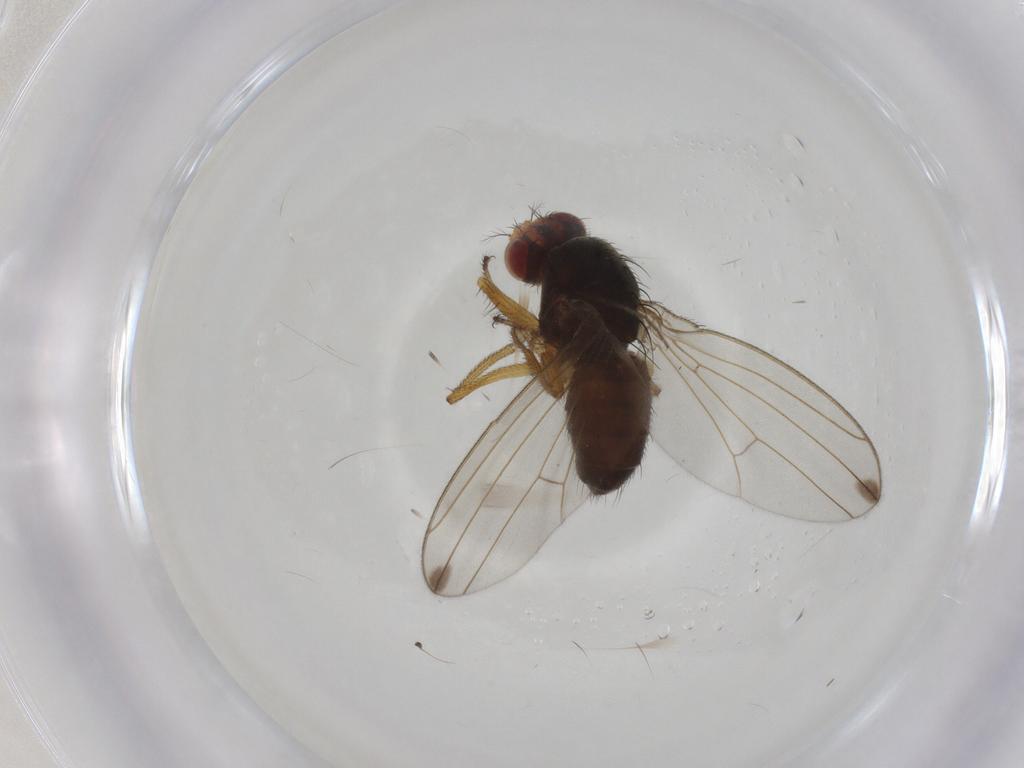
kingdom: Animalia
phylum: Arthropoda
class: Insecta
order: Diptera
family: Drosophilidae
